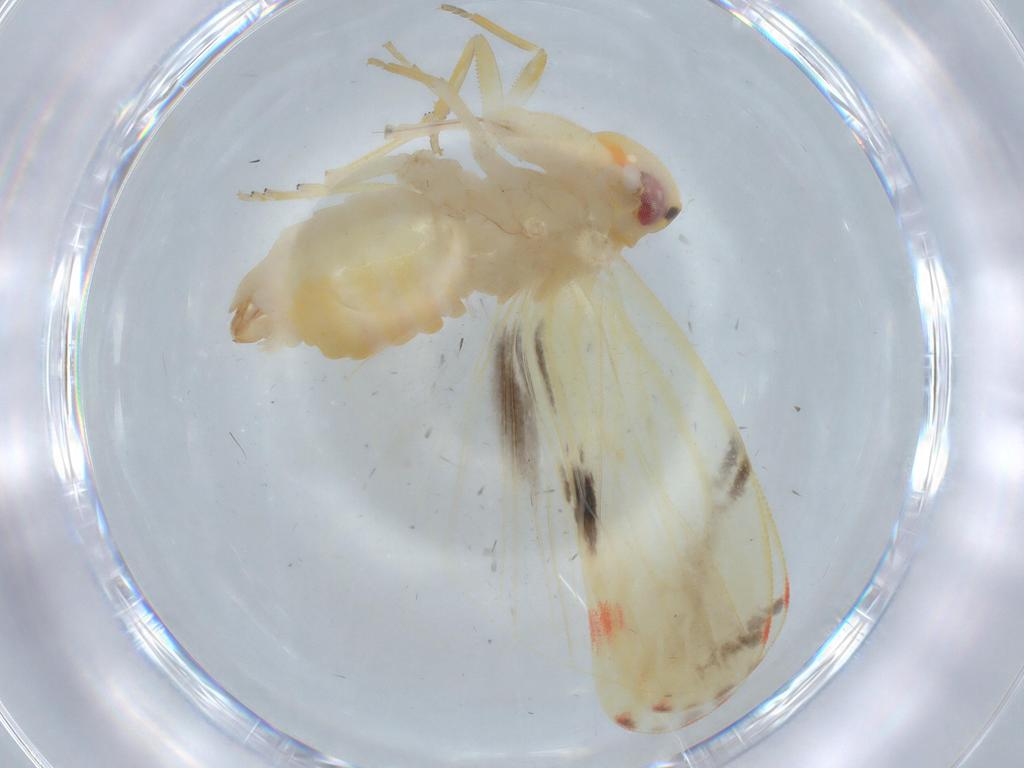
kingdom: Animalia
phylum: Arthropoda
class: Insecta
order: Hemiptera
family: Derbidae
